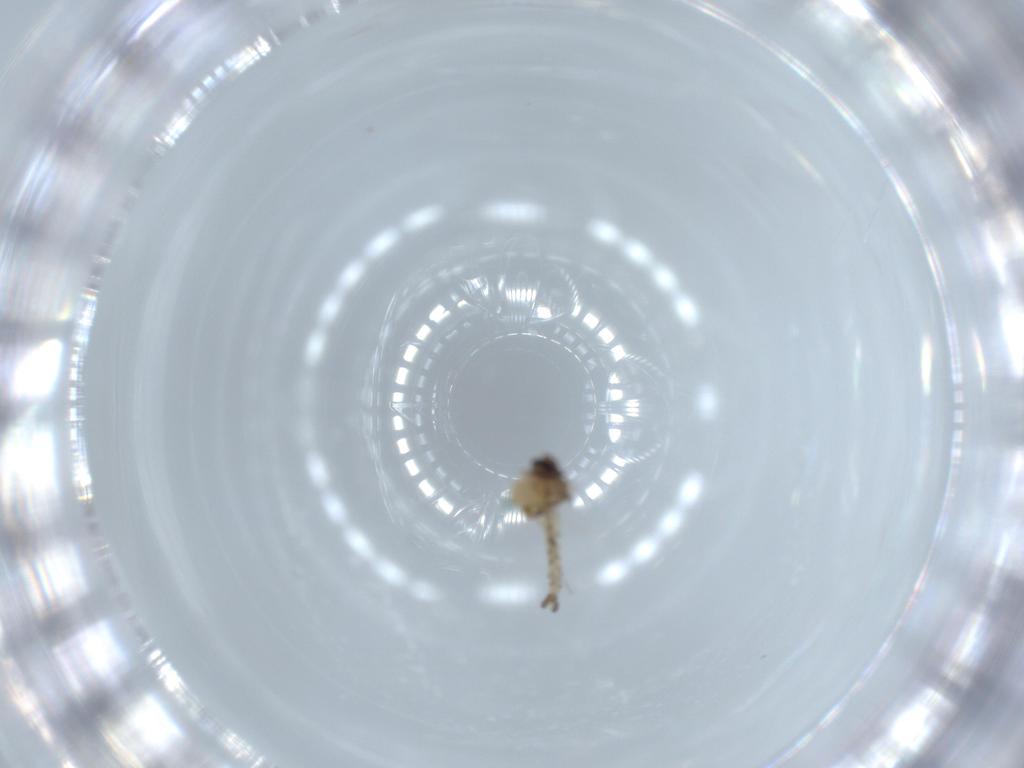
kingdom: Animalia
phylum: Arthropoda
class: Insecta
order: Diptera
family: Ceratopogonidae
